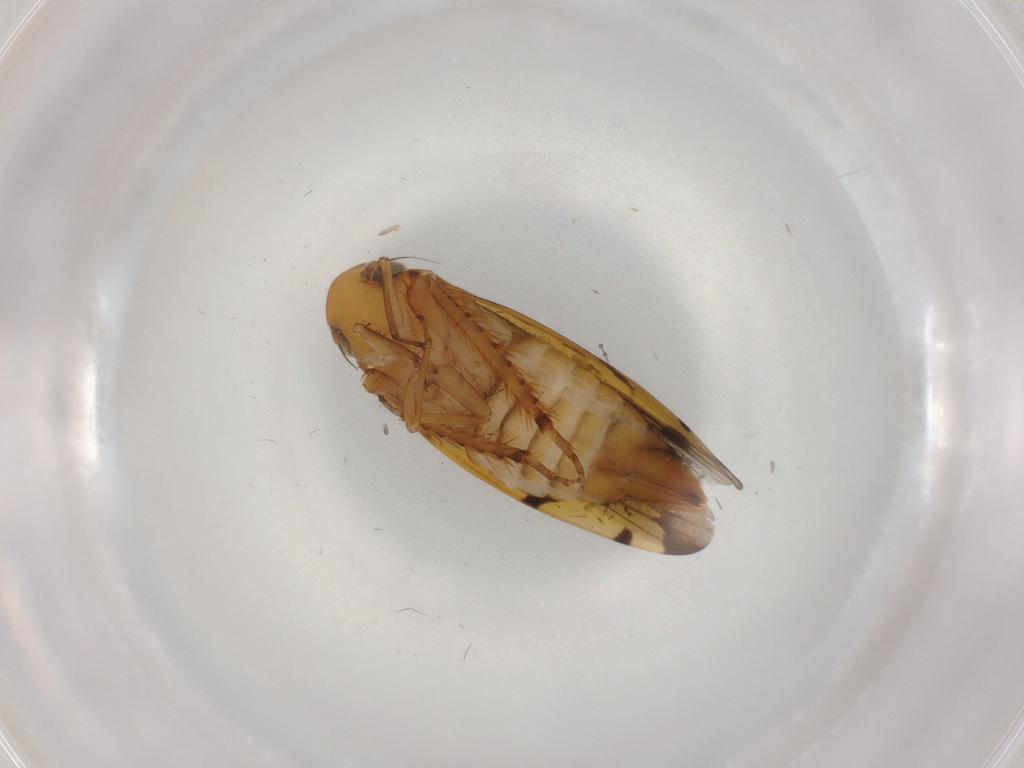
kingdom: Animalia
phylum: Arthropoda
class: Insecta
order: Hemiptera
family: Cicadellidae
